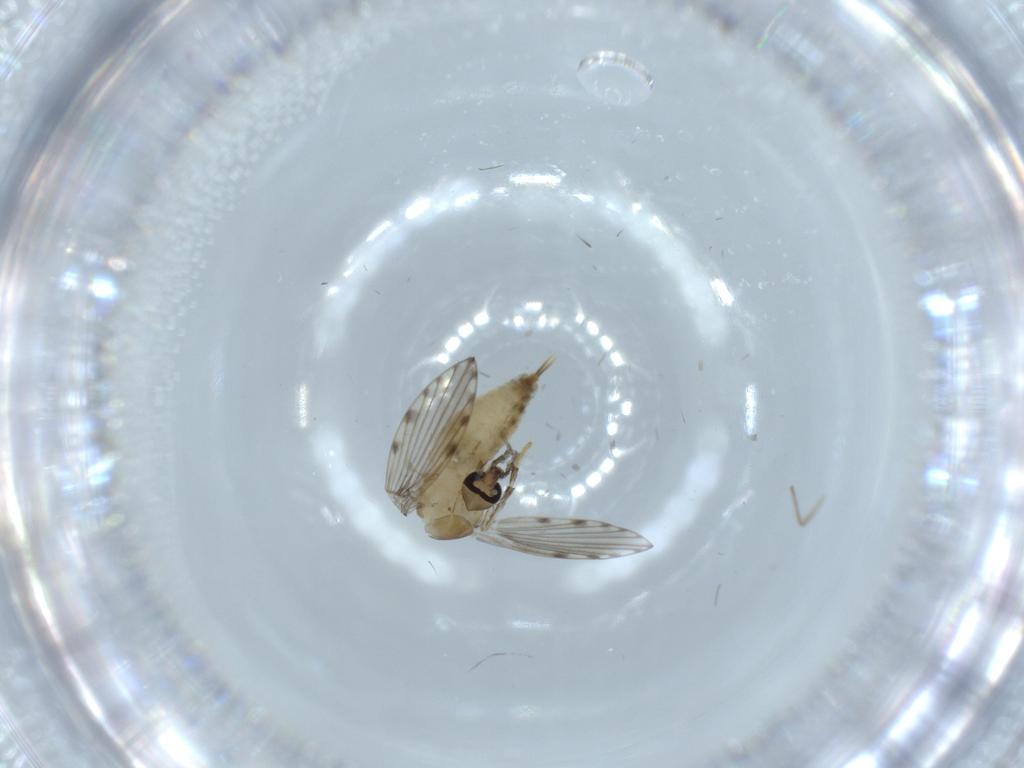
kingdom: Animalia
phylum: Arthropoda
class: Insecta
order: Diptera
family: Psychodidae
